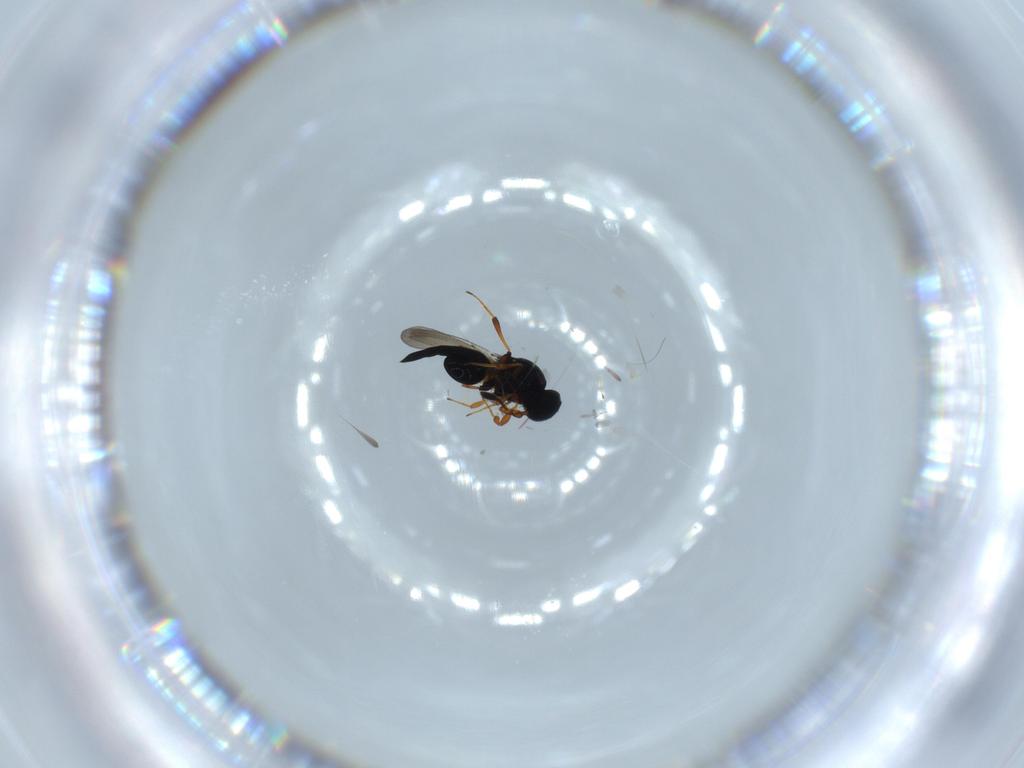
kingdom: Animalia
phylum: Arthropoda
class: Insecta
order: Hymenoptera
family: Platygastridae
